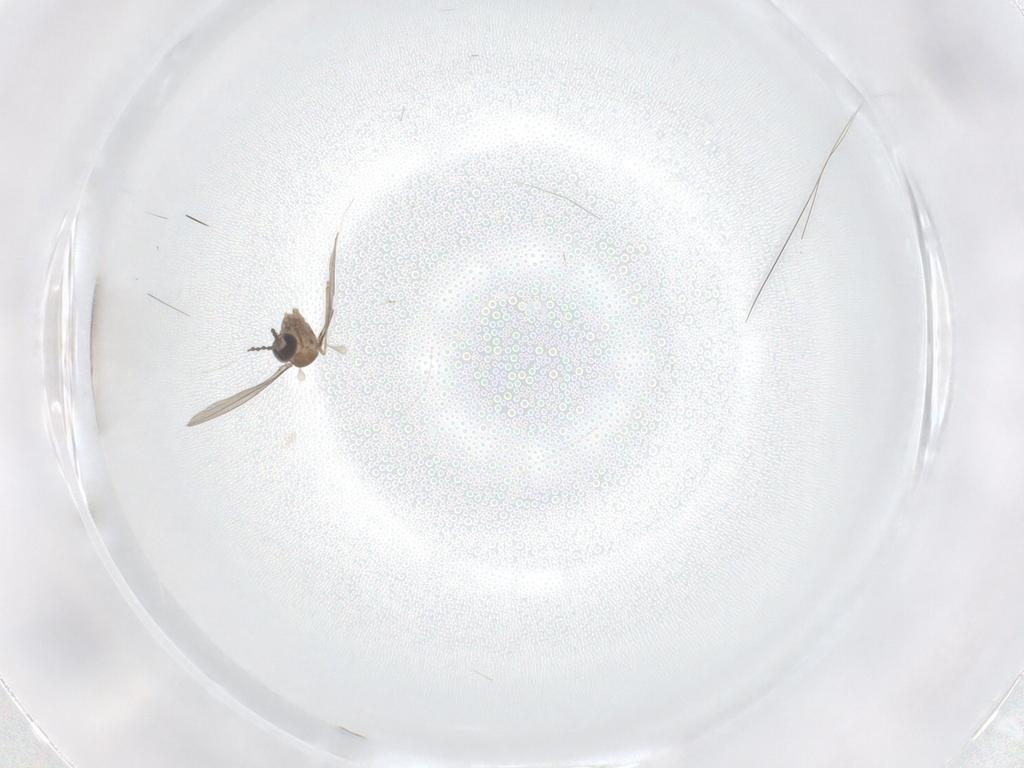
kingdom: Animalia
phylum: Arthropoda
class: Insecta
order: Diptera
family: Cecidomyiidae
